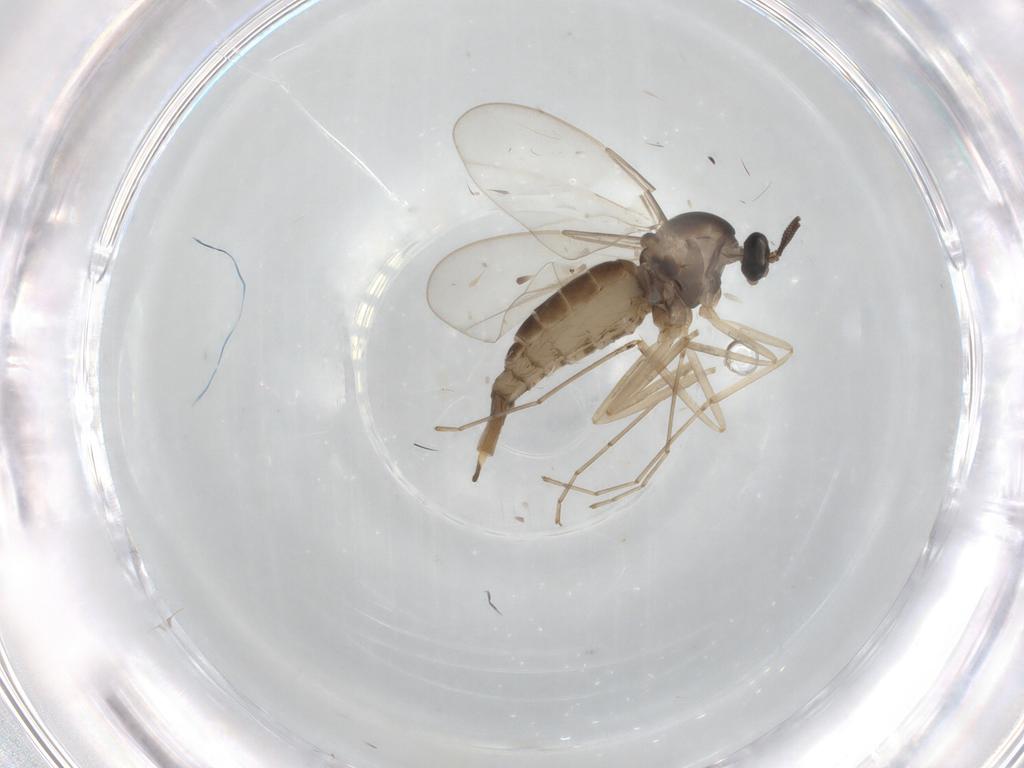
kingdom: Animalia
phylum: Arthropoda
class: Insecta
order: Diptera
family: Cecidomyiidae
